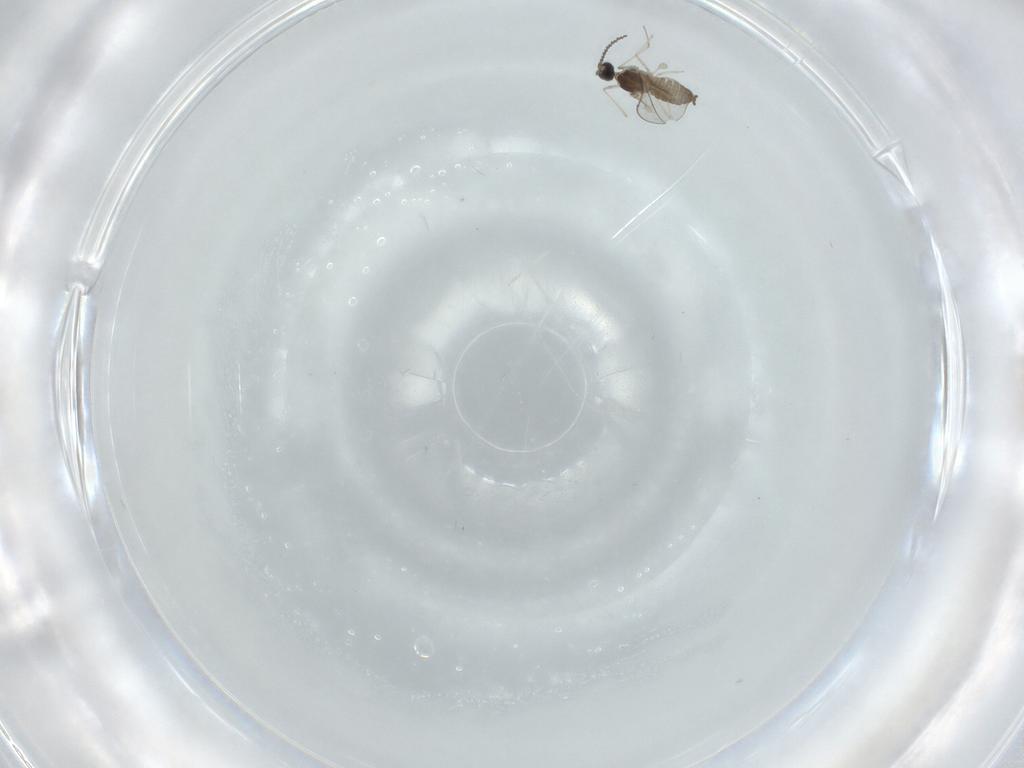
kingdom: Animalia
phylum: Arthropoda
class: Insecta
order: Diptera
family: Cecidomyiidae
